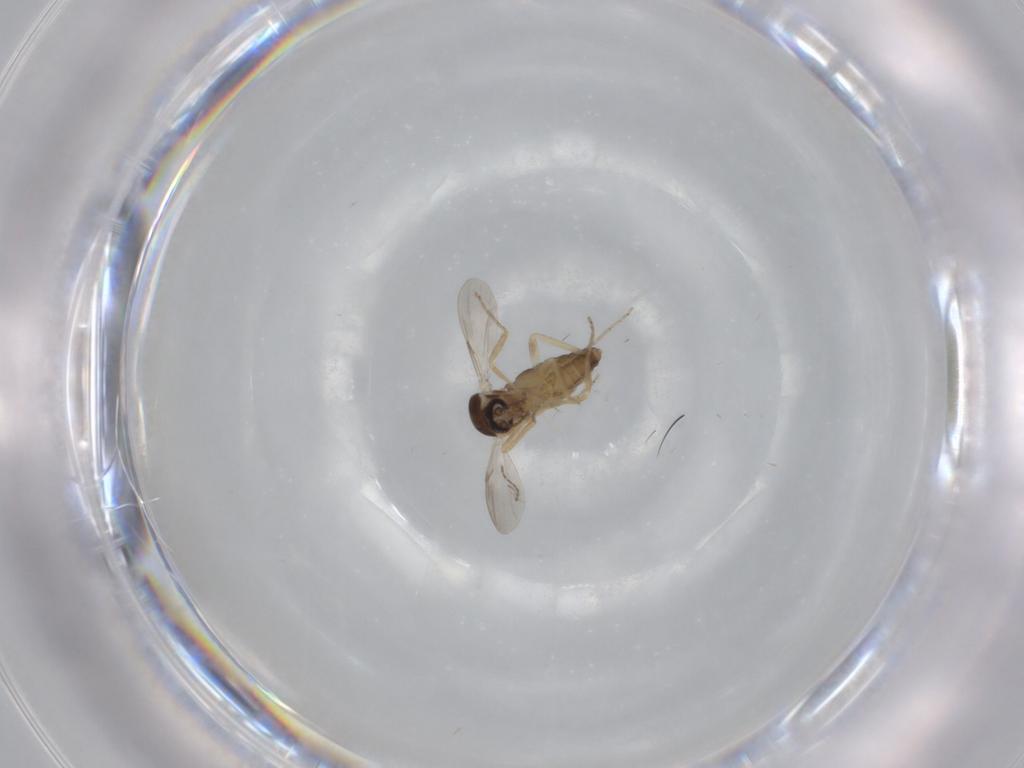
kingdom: Animalia
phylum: Arthropoda
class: Insecta
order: Diptera
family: Ceratopogonidae
